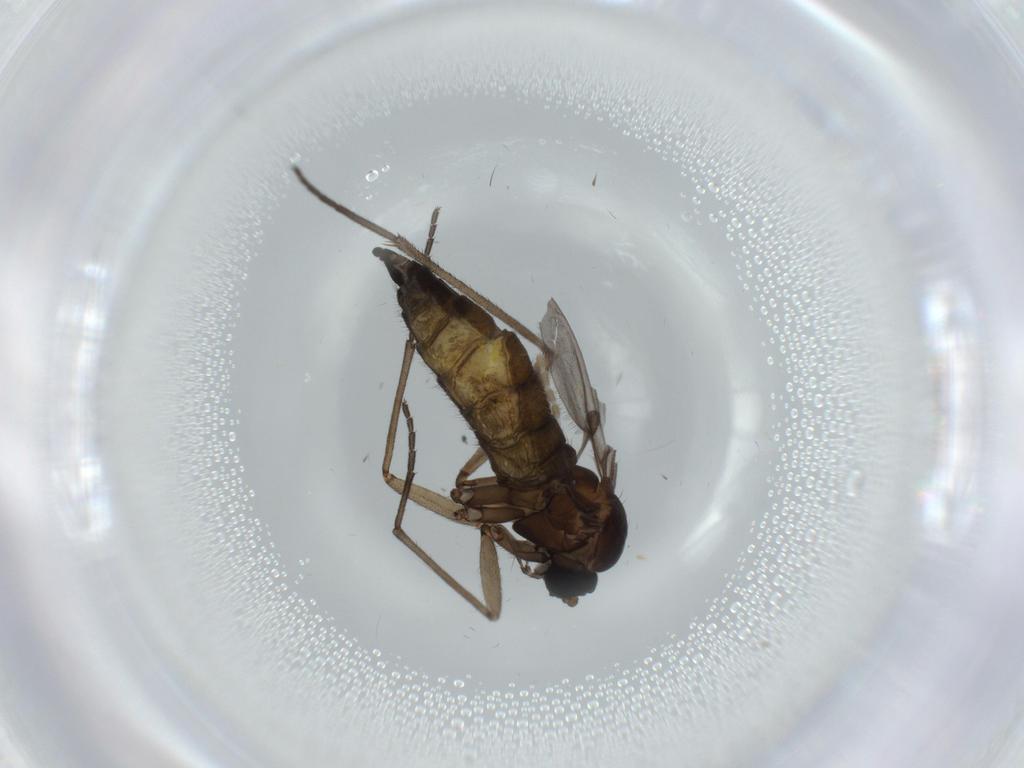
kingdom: Animalia
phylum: Arthropoda
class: Insecta
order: Diptera
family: Sciaridae
